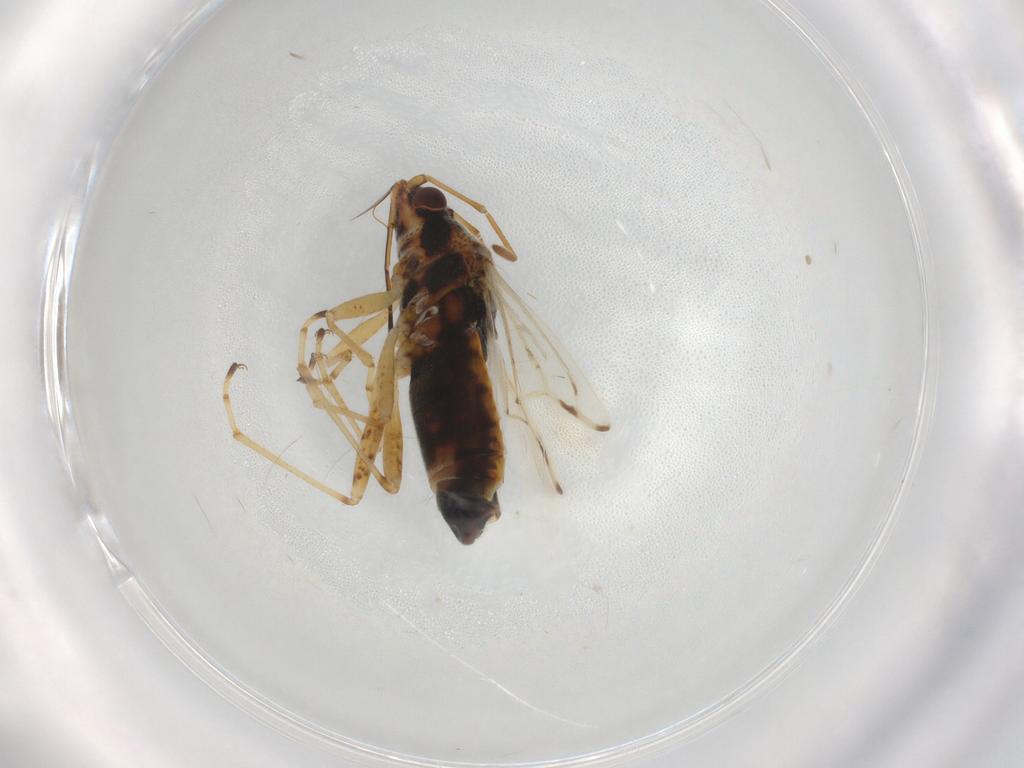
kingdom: Animalia
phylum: Arthropoda
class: Insecta
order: Hemiptera
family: Lygaeidae
